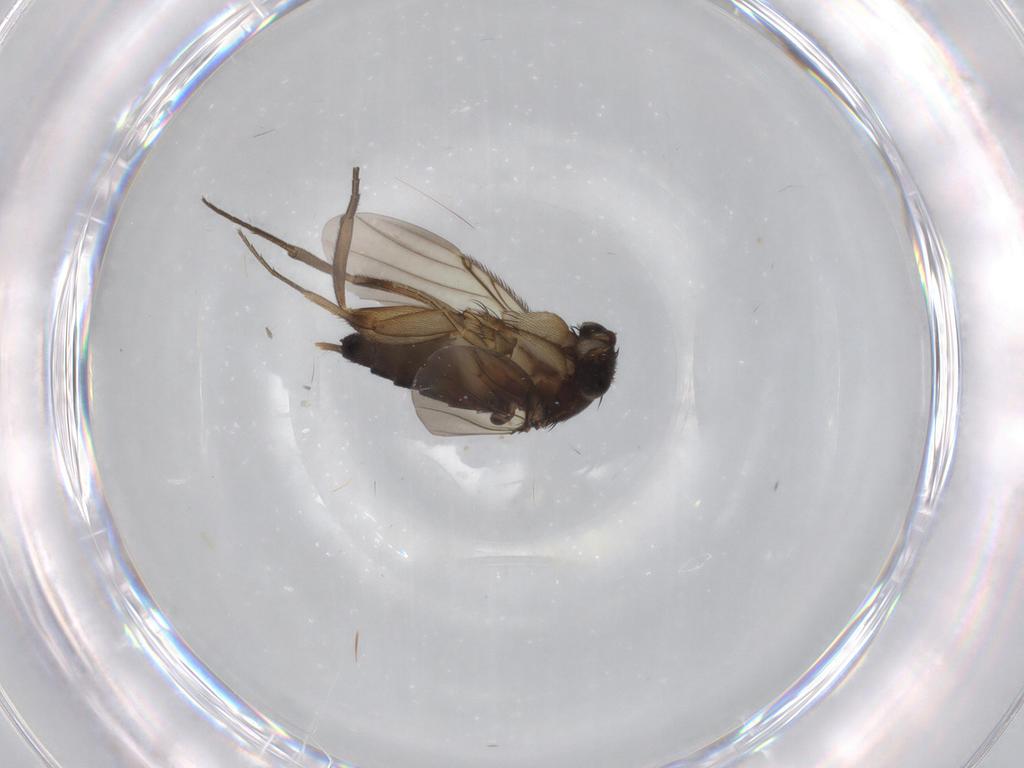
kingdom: Animalia
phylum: Arthropoda
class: Insecta
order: Diptera
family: Phoridae
